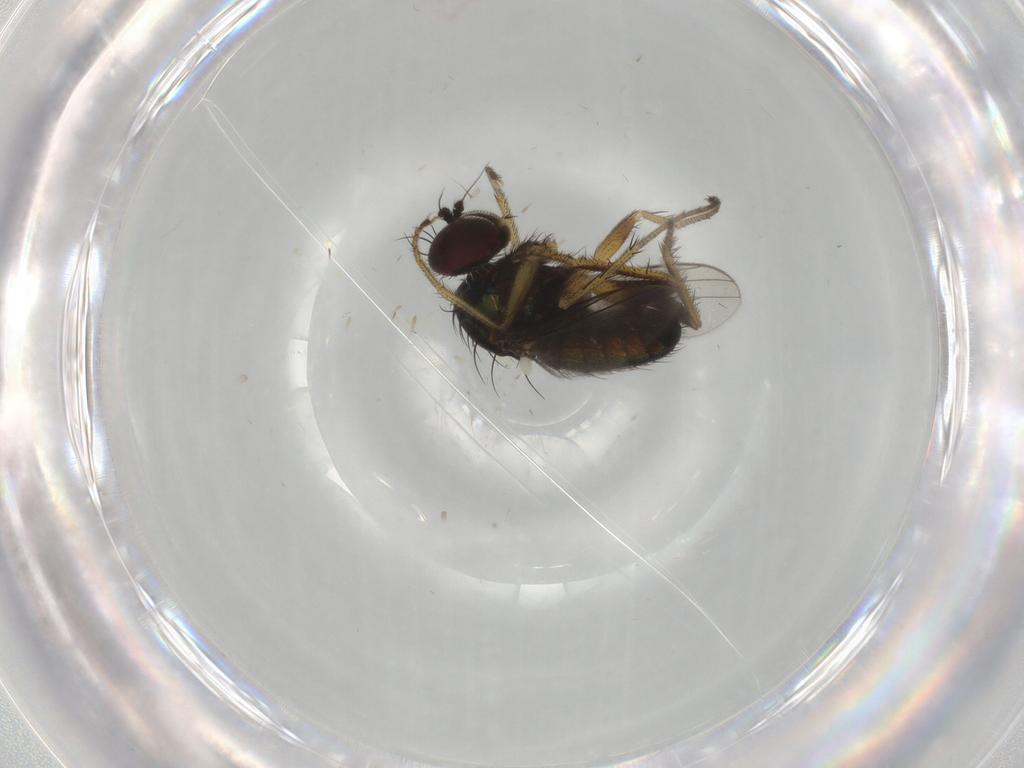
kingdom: Animalia
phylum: Arthropoda
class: Insecta
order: Diptera
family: Dolichopodidae
